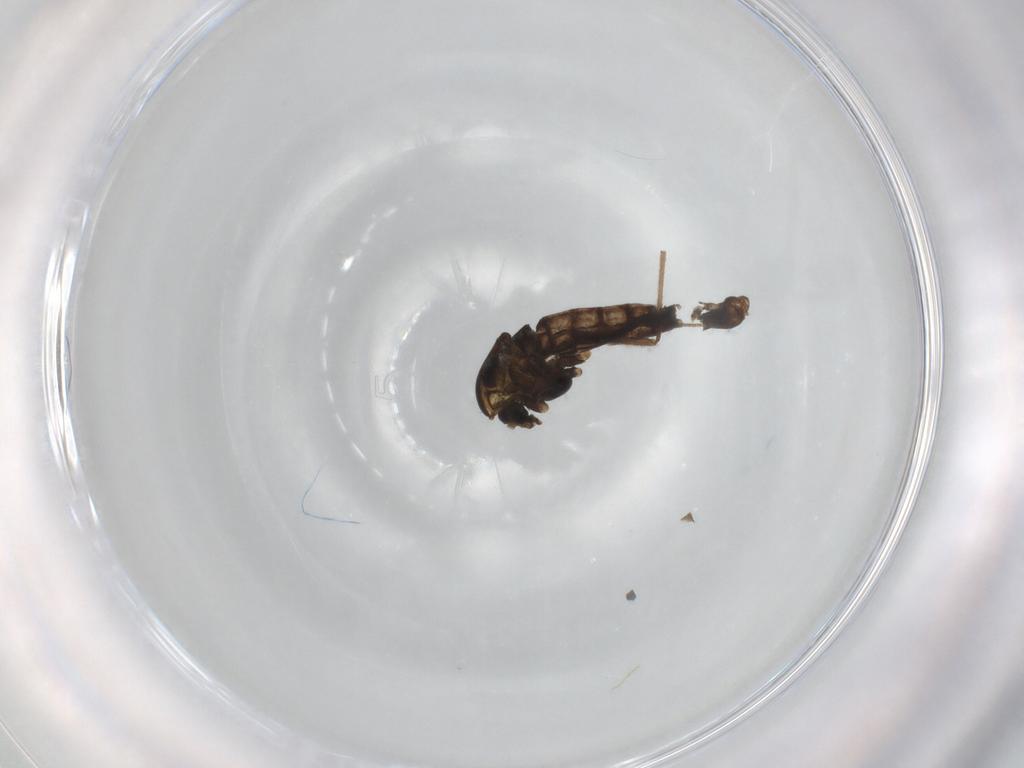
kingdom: Animalia
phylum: Arthropoda
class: Insecta
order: Diptera
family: Chironomidae
